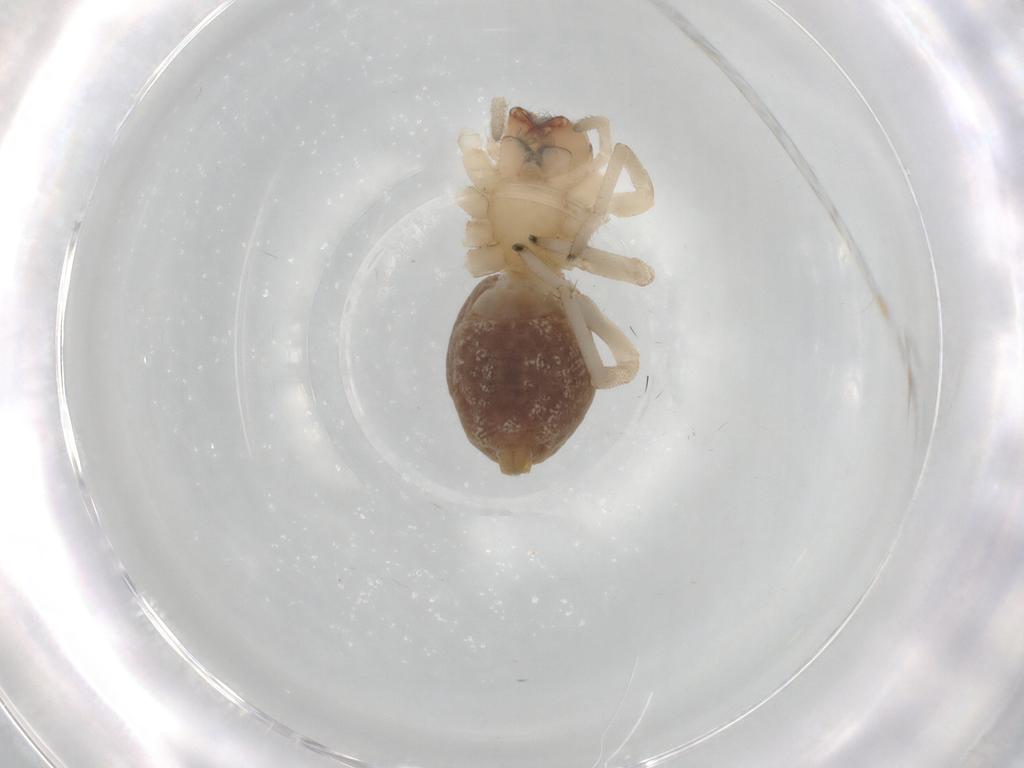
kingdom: Animalia
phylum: Arthropoda
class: Arachnida
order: Araneae
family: Cheiracanthiidae
